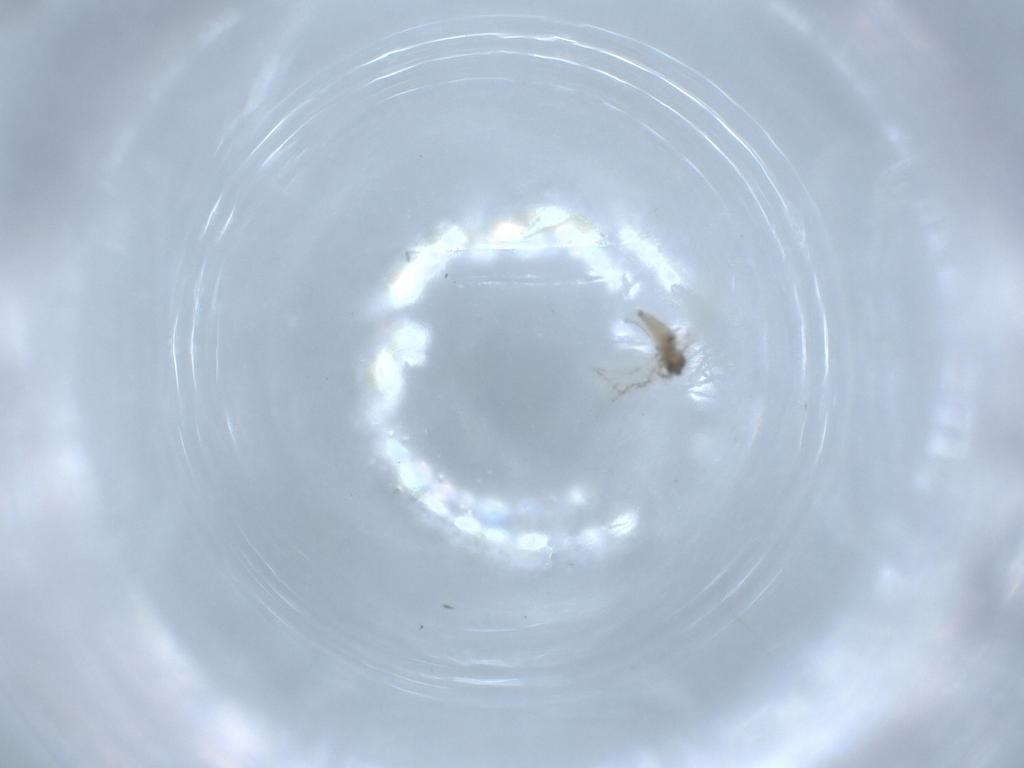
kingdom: Animalia
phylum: Arthropoda
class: Insecta
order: Diptera
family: Cecidomyiidae
